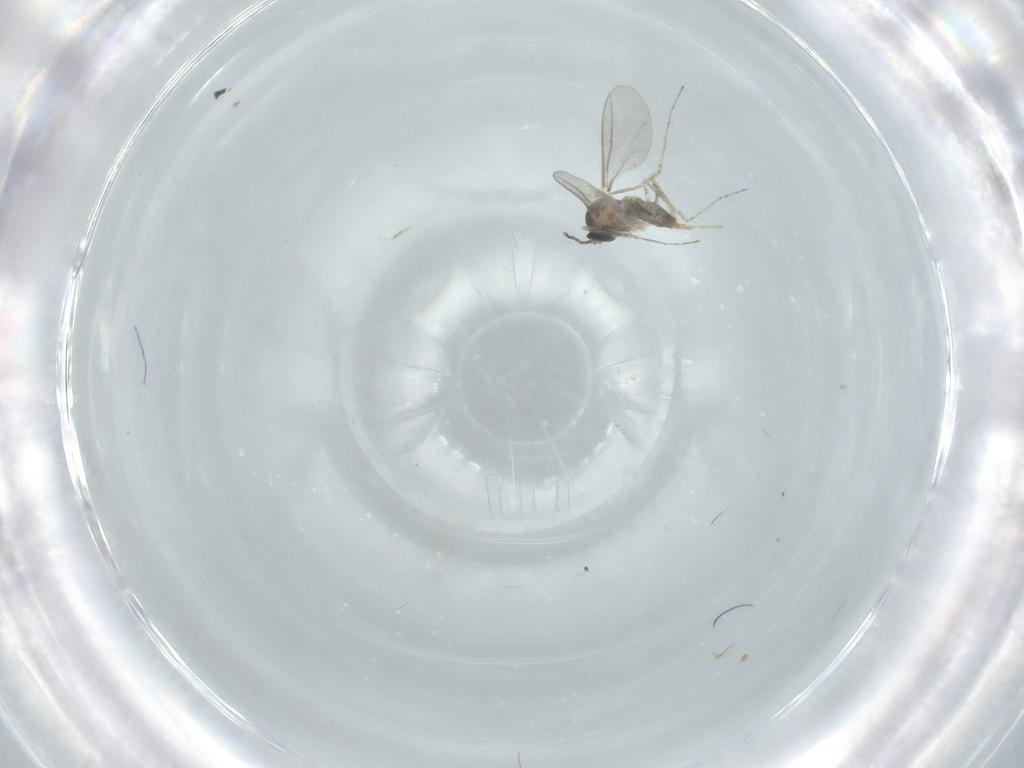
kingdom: Animalia
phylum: Arthropoda
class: Insecta
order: Diptera
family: Cecidomyiidae
